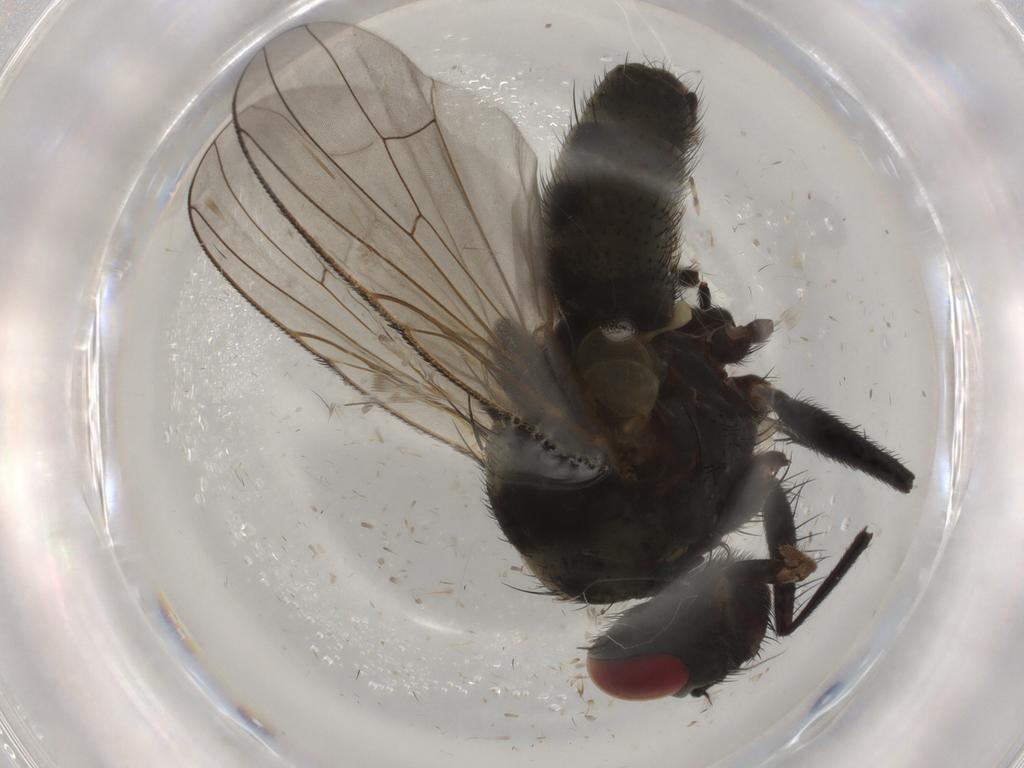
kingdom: Animalia
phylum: Arthropoda
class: Insecta
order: Diptera
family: Muscidae
